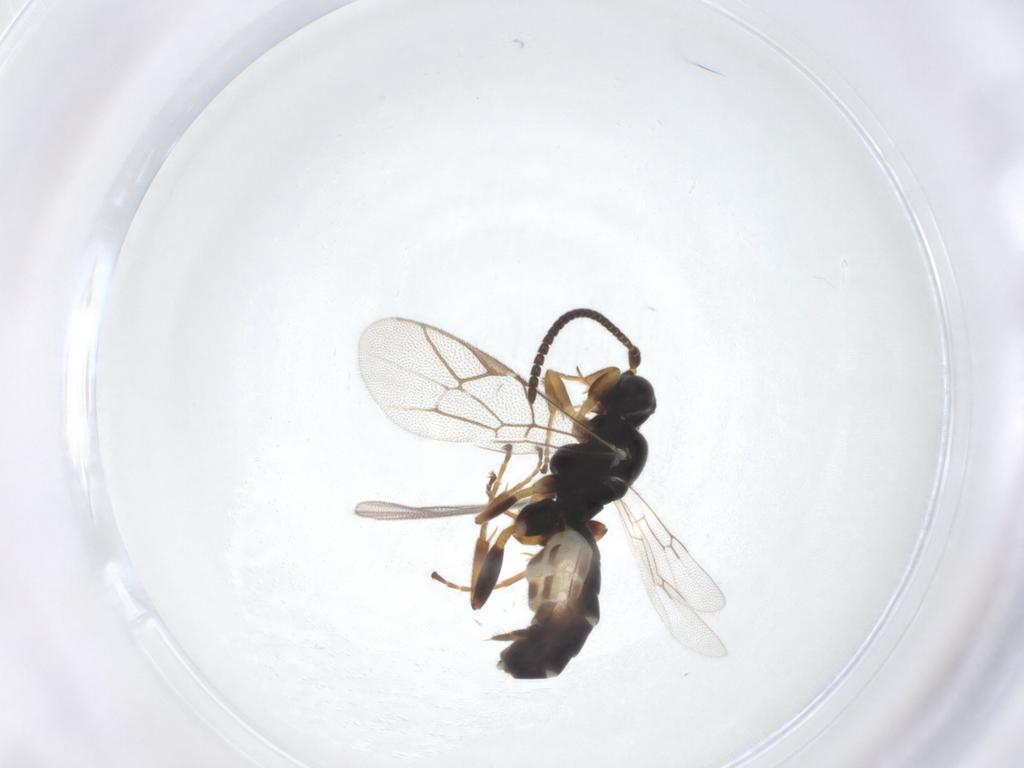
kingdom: Animalia
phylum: Arthropoda
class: Insecta
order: Hymenoptera
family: Ichneumonidae
